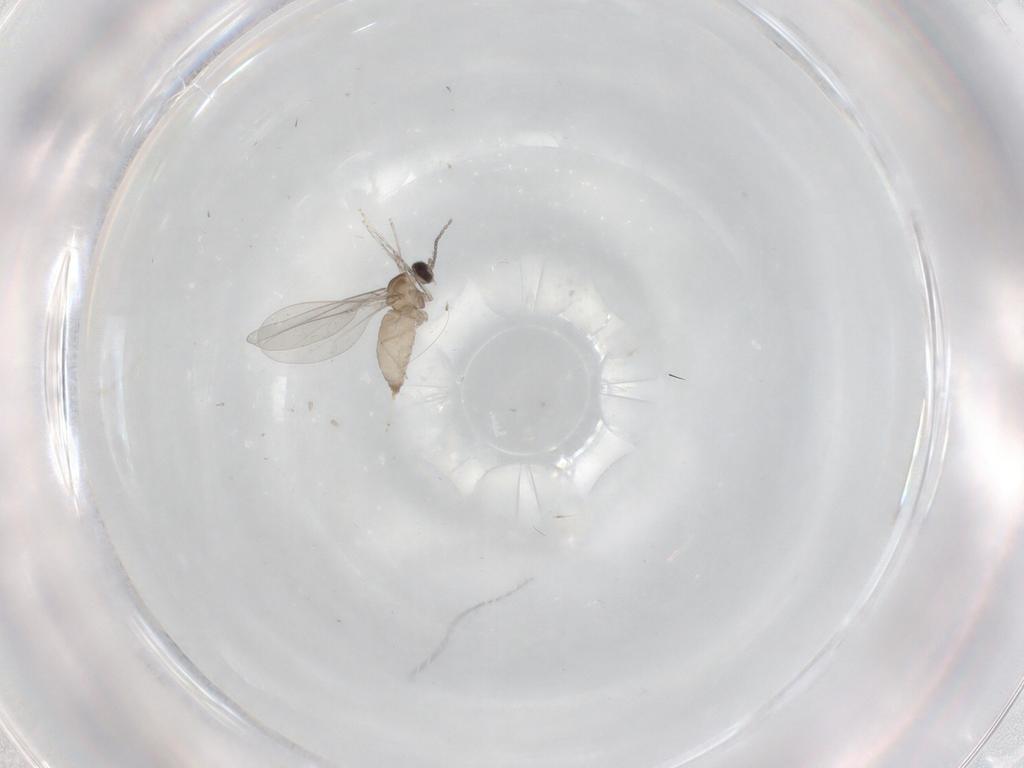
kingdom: Animalia
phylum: Arthropoda
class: Insecta
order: Diptera
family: Cecidomyiidae
